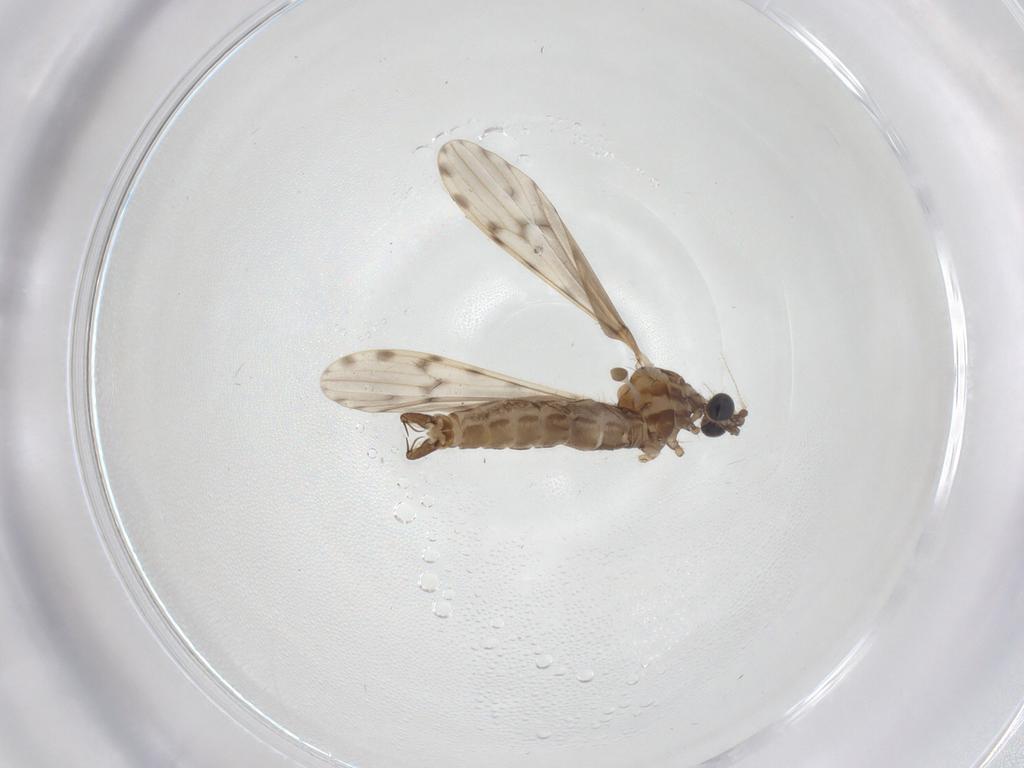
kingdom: Animalia
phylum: Arthropoda
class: Insecta
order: Diptera
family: Limoniidae
